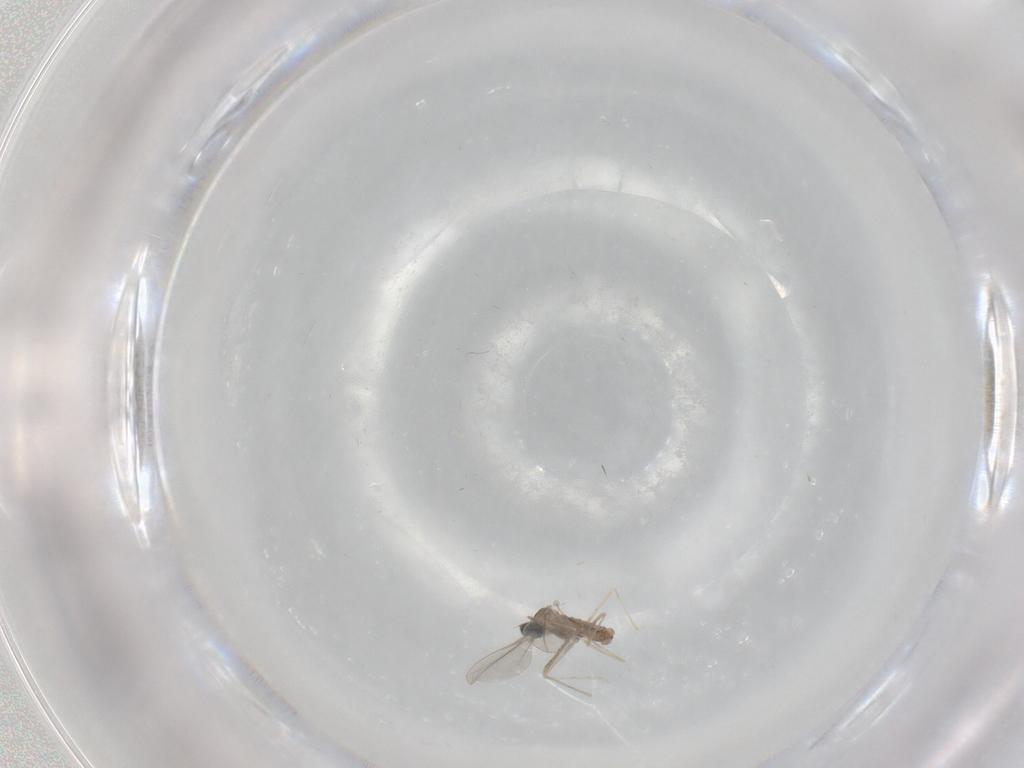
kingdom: Animalia
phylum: Arthropoda
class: Insecta
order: Diptera
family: Cecidomyiidae
